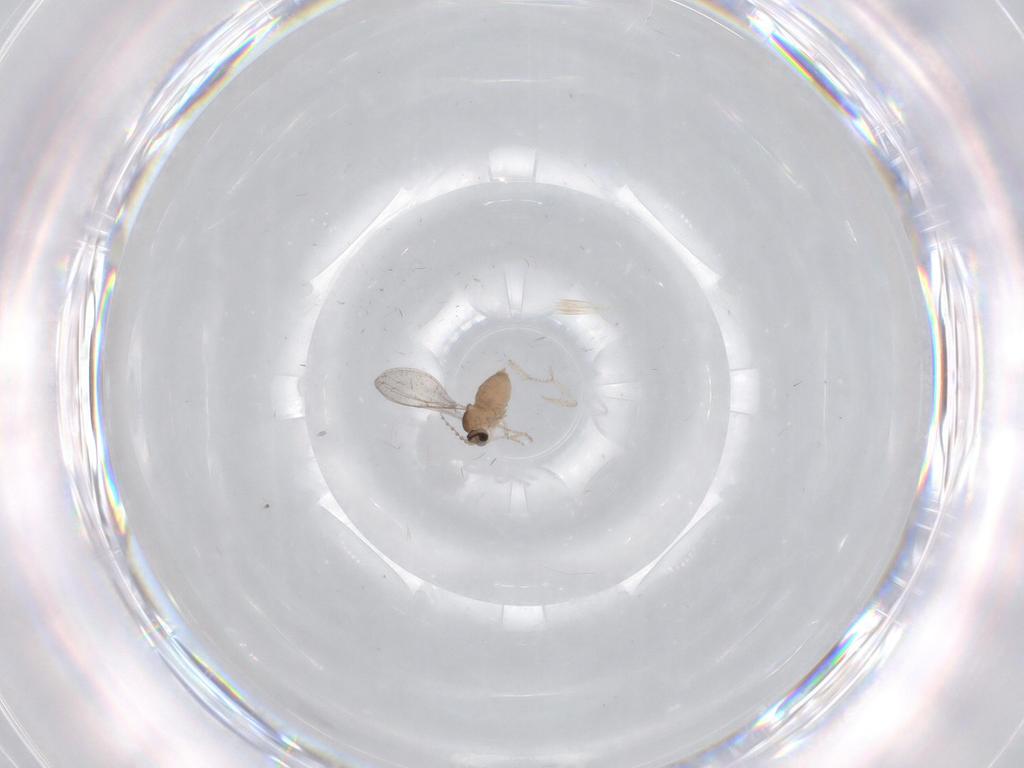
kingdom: Animalia
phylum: Arthropoda
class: Insecta
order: Diptera
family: Cecidomyiidae
